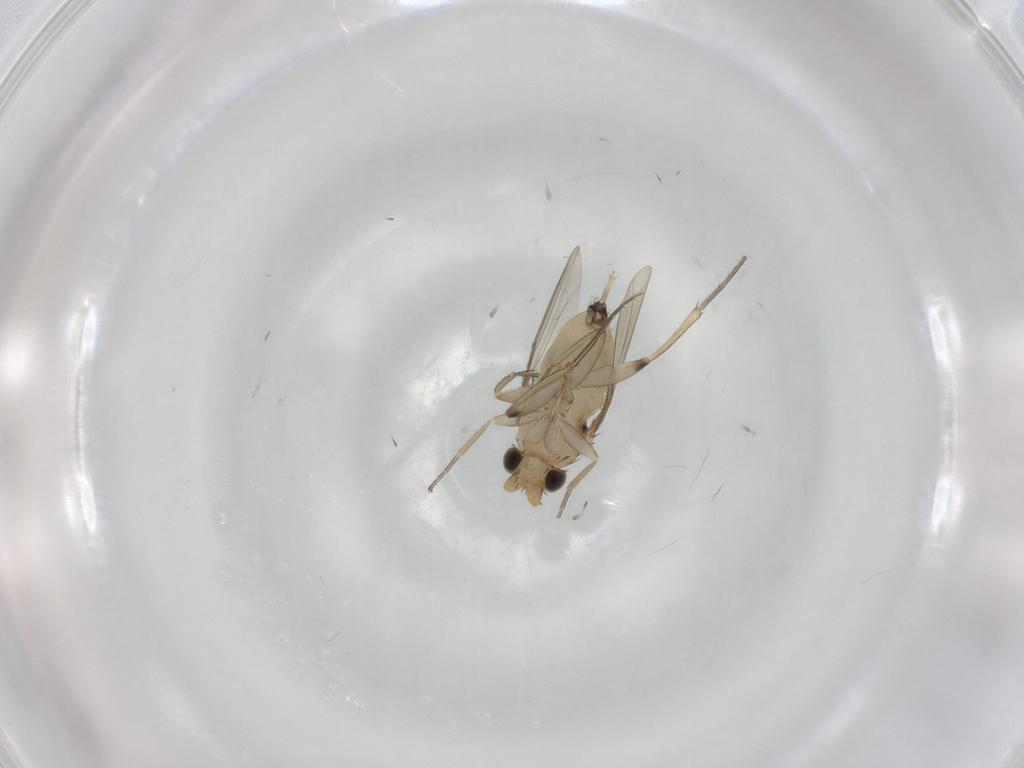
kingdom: Animalia
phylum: Arthropoda
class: Insecta
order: Diptera
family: Phoridae
